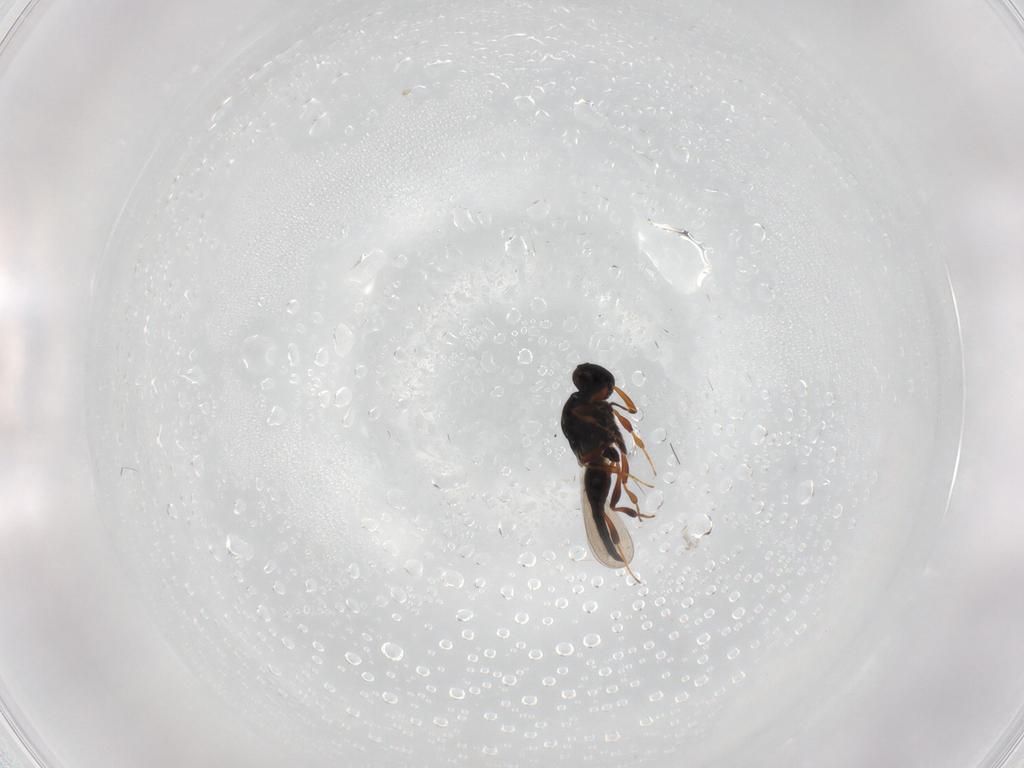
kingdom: Animalia
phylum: Arthropoda
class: Insecta
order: Hymenoptera
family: Platygastridae
